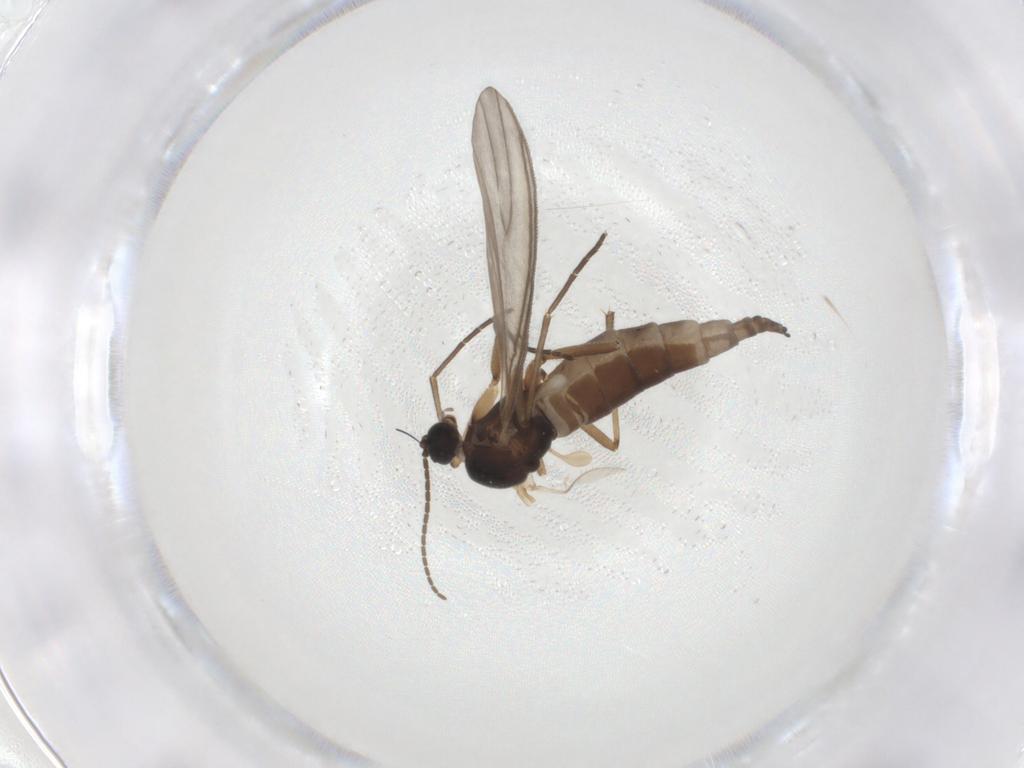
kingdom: Animalia
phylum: Arthropoda
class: Insecta
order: Diptera
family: Sciaridae
